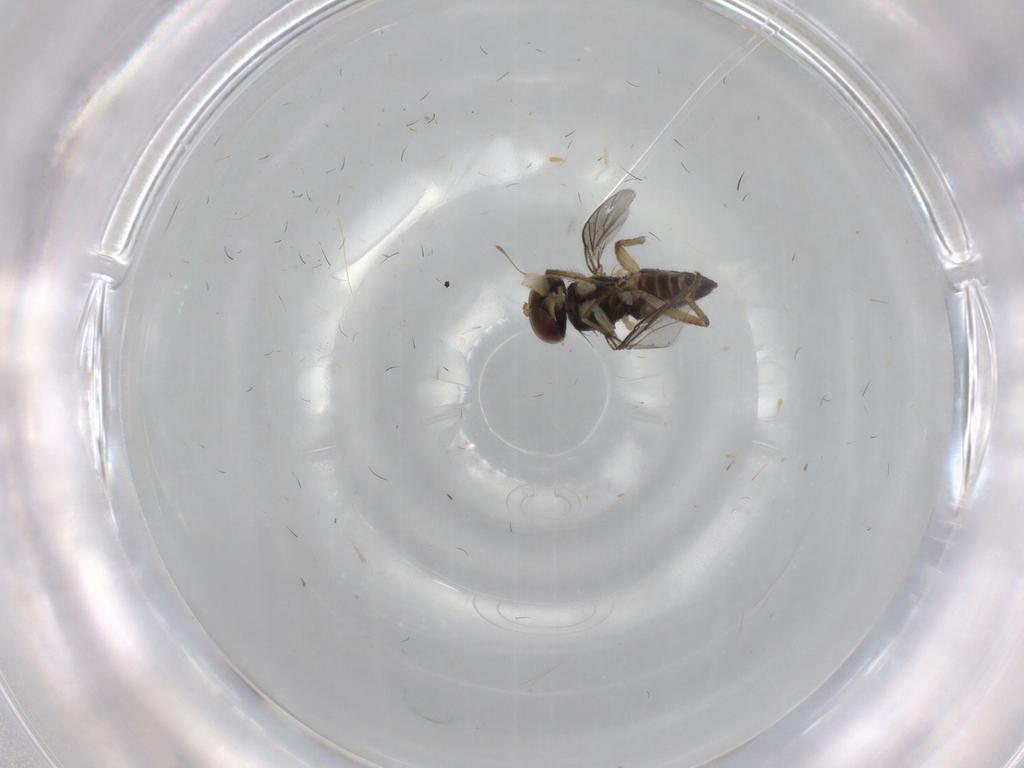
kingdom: Animalia
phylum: Arthropoda
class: Insecta
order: Diptera
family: Dolichopodidae
